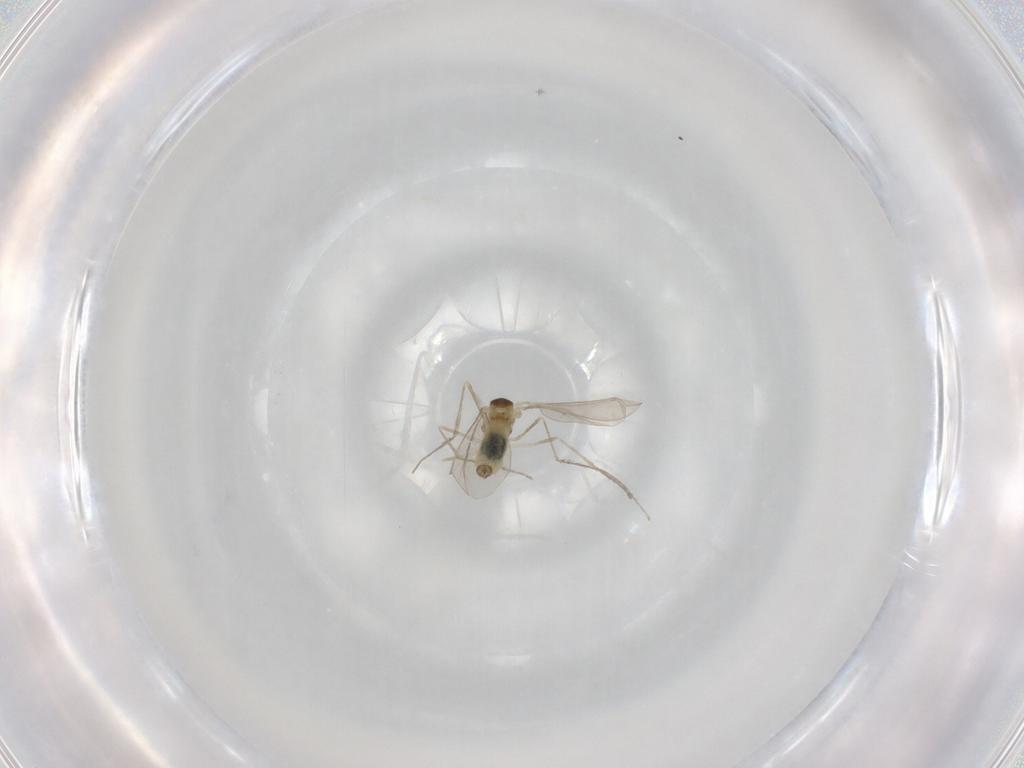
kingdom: Animalia
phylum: Arthropoda
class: Insecta
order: Diptera
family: Cecidomyiidae
